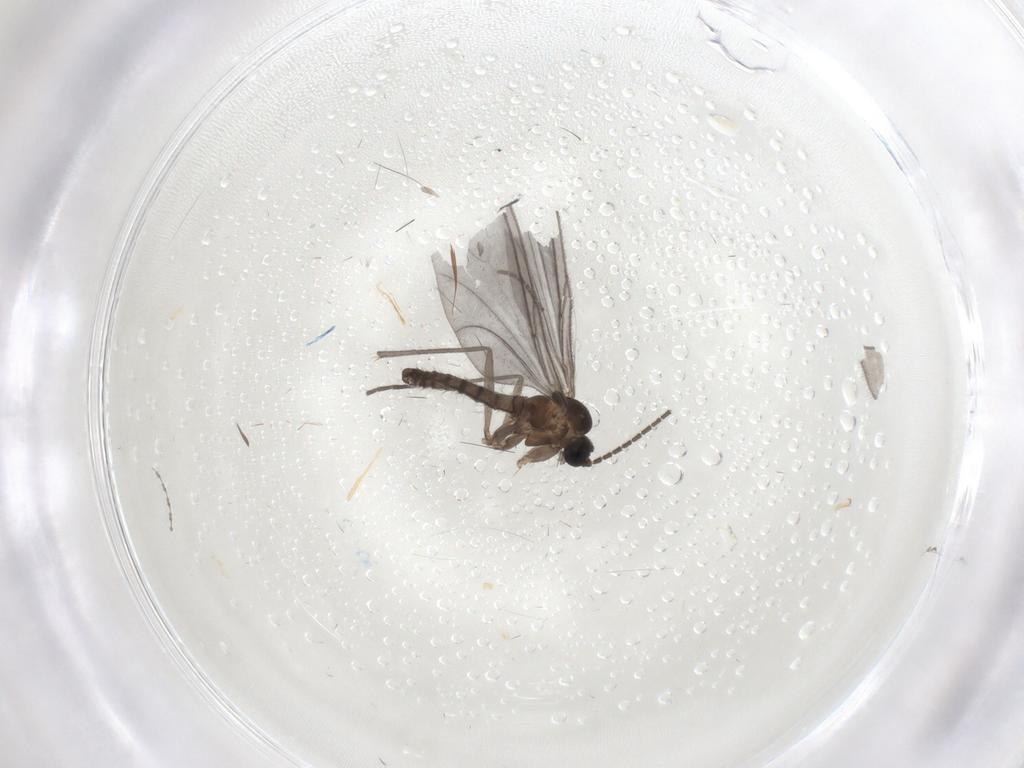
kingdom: Animalia
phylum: Arthropoda
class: Insecta
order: Diptera
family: Sciaridae
